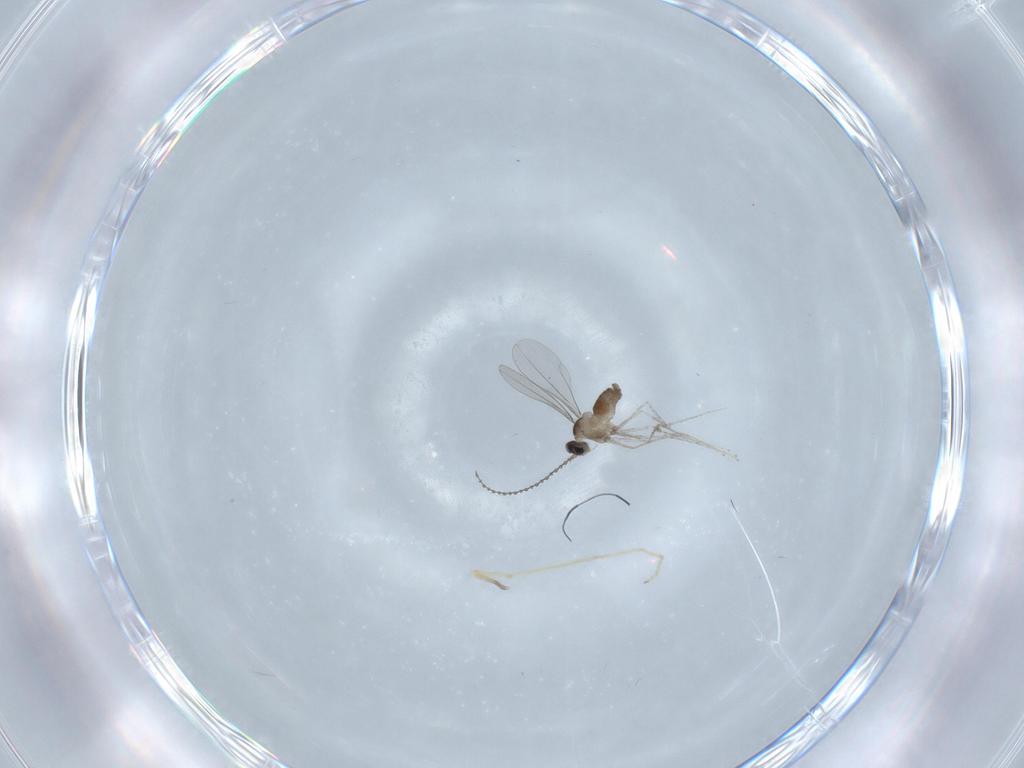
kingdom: Animalia
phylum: Arthropoda
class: Insecta
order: Diptera
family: Cecidomyiidae
